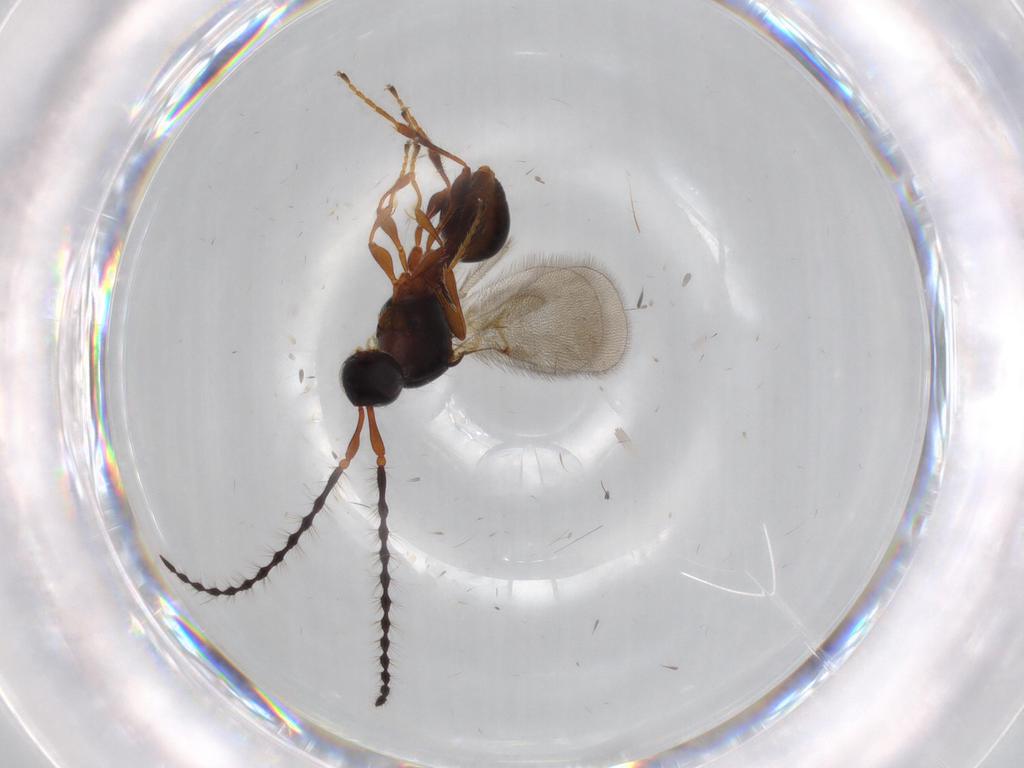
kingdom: Animalia
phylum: Arthropoda
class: Insecta
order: Hymenoptera
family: Diapriidae
